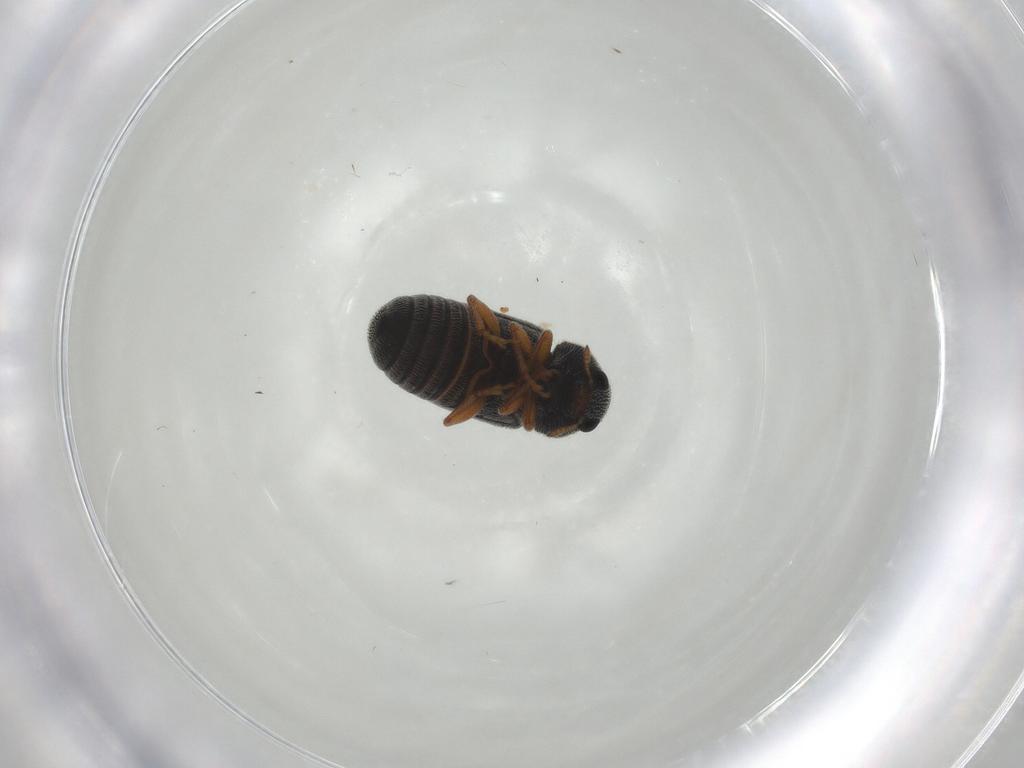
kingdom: Animalia
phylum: Arthropoda
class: Insecta
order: Coleoptera
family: Anthribidae
